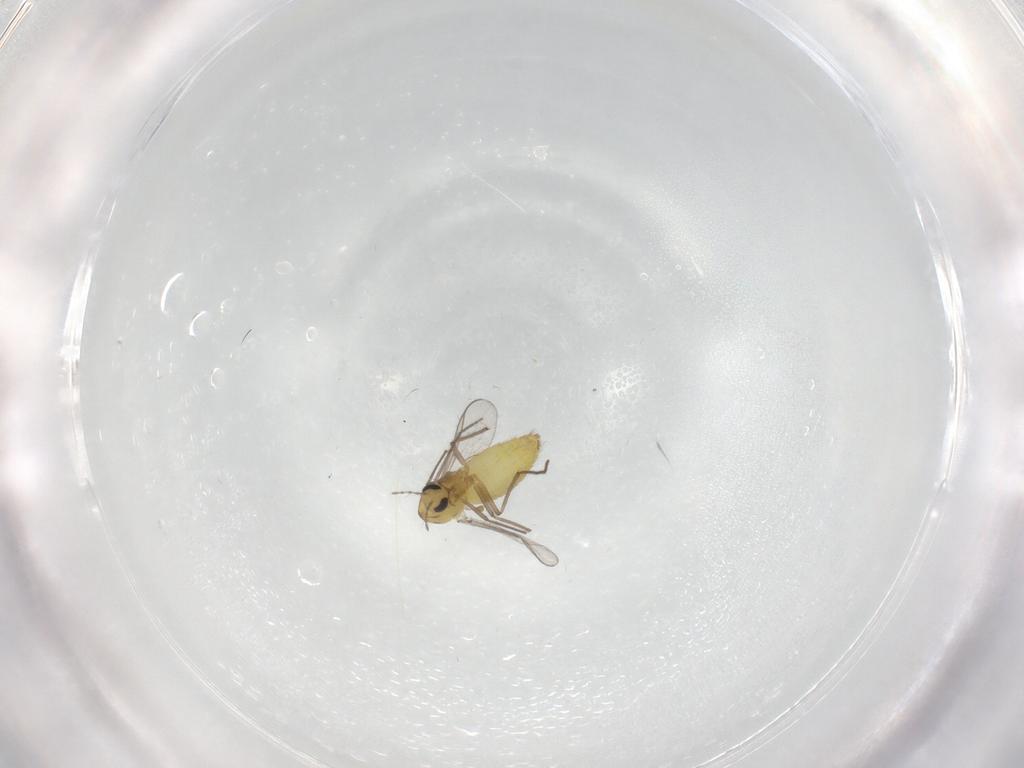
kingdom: Animalia
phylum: Arthropoda
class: Insecta
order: Diptera
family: Chironomidae
